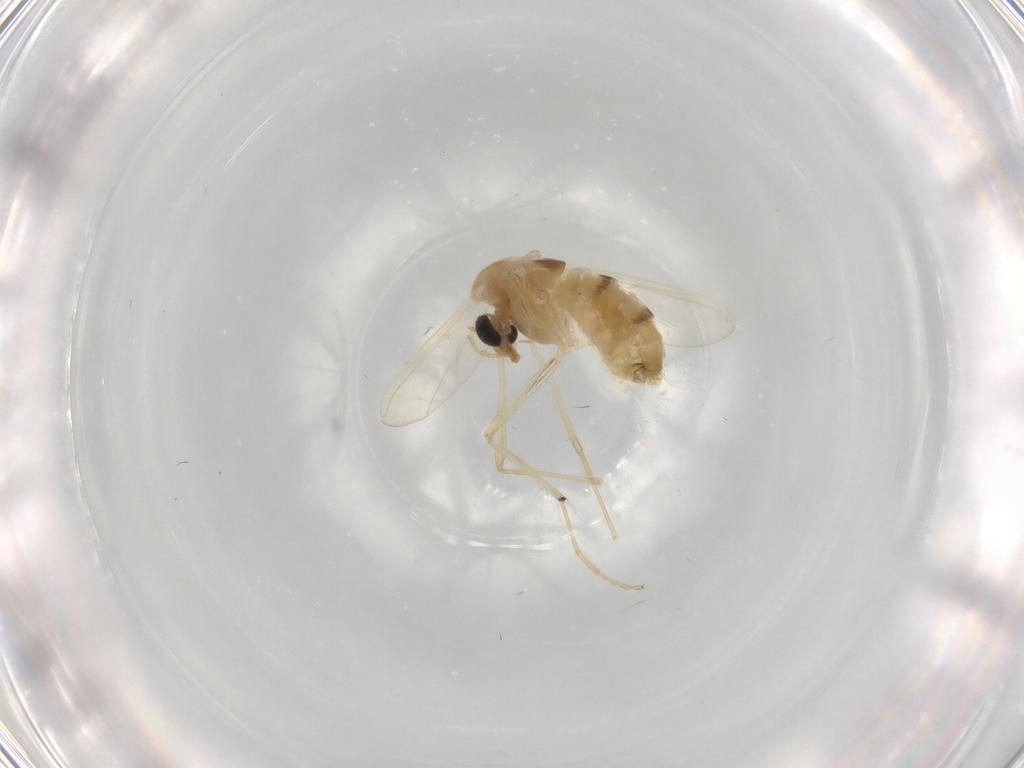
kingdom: Animalia
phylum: Arthropoda
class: Insecta
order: Diptera
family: Chironomidae
